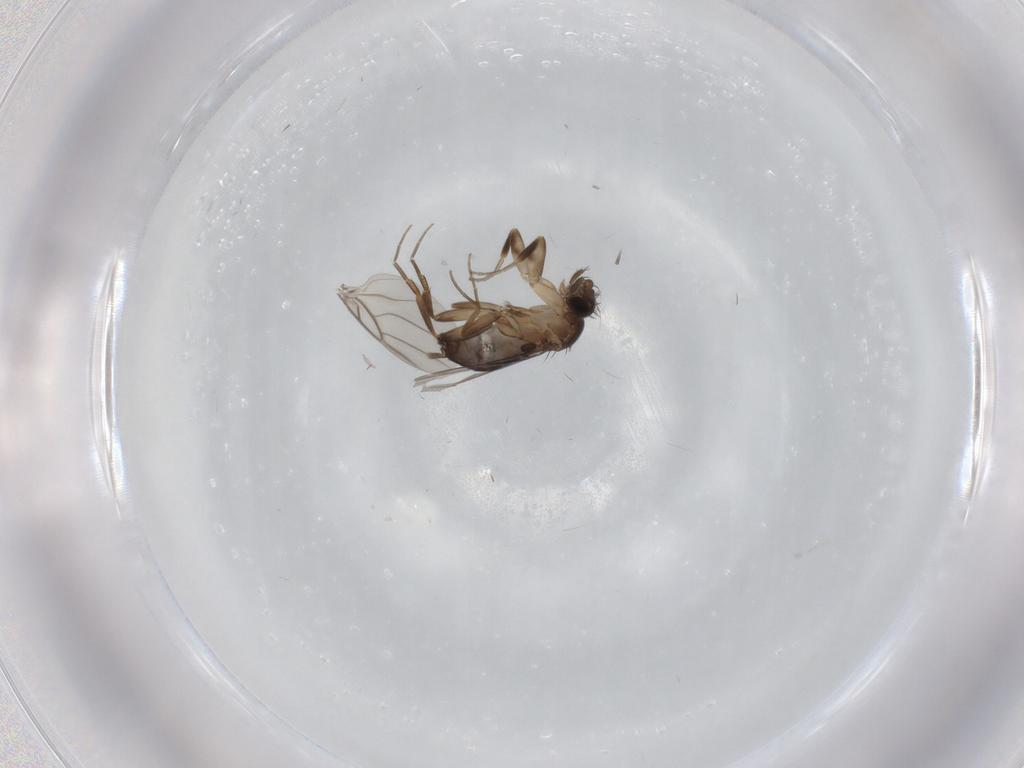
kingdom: Animalia
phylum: Arthropoda
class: Insecta
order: Diptera
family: Phoridae
